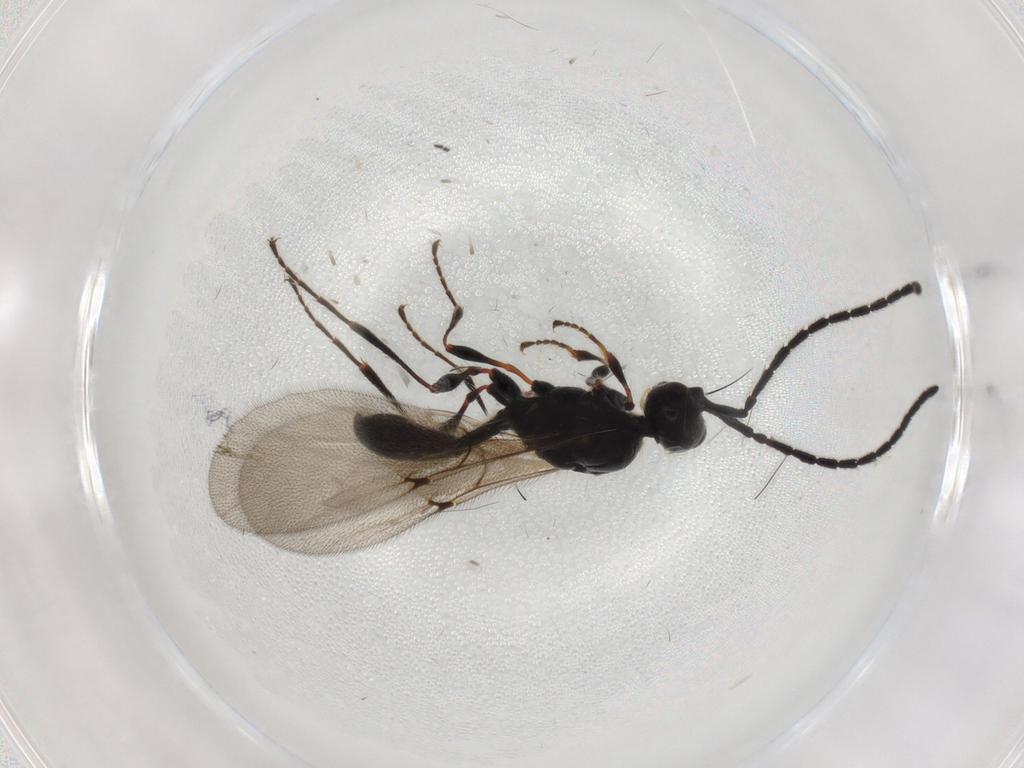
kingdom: Animalia
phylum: Arthropoda
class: Insecta
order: Hymenoptera
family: Diapriidae
